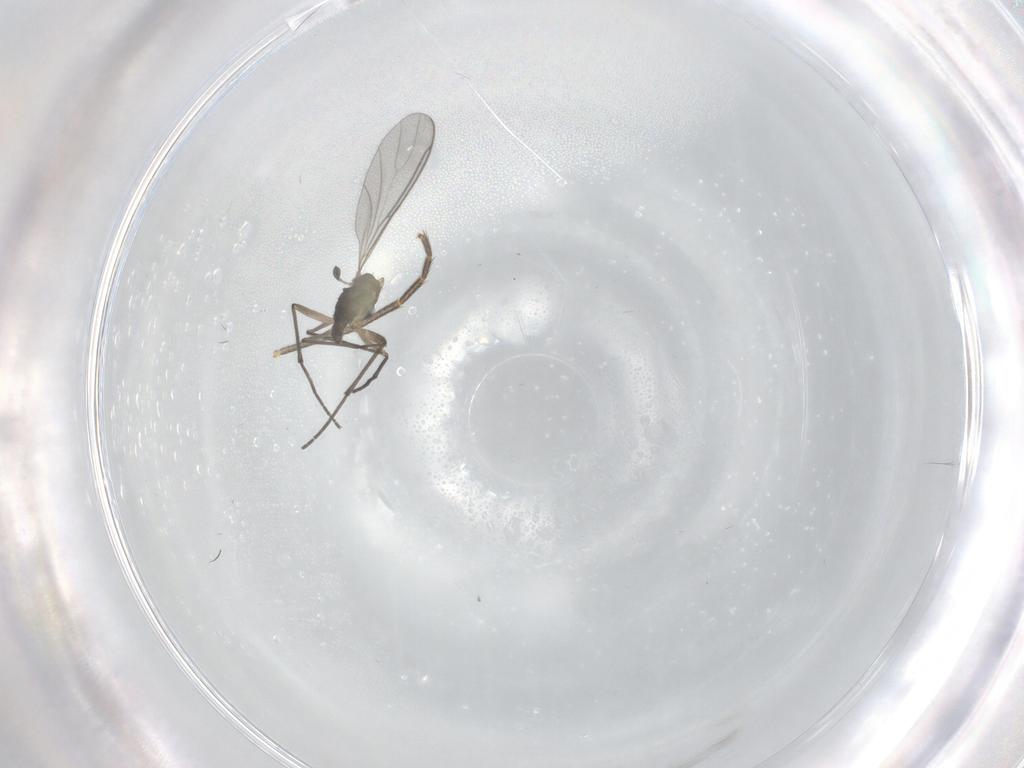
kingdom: Animalia
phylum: Arthropoda
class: Insecta
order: Diptera
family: Sciaridae
